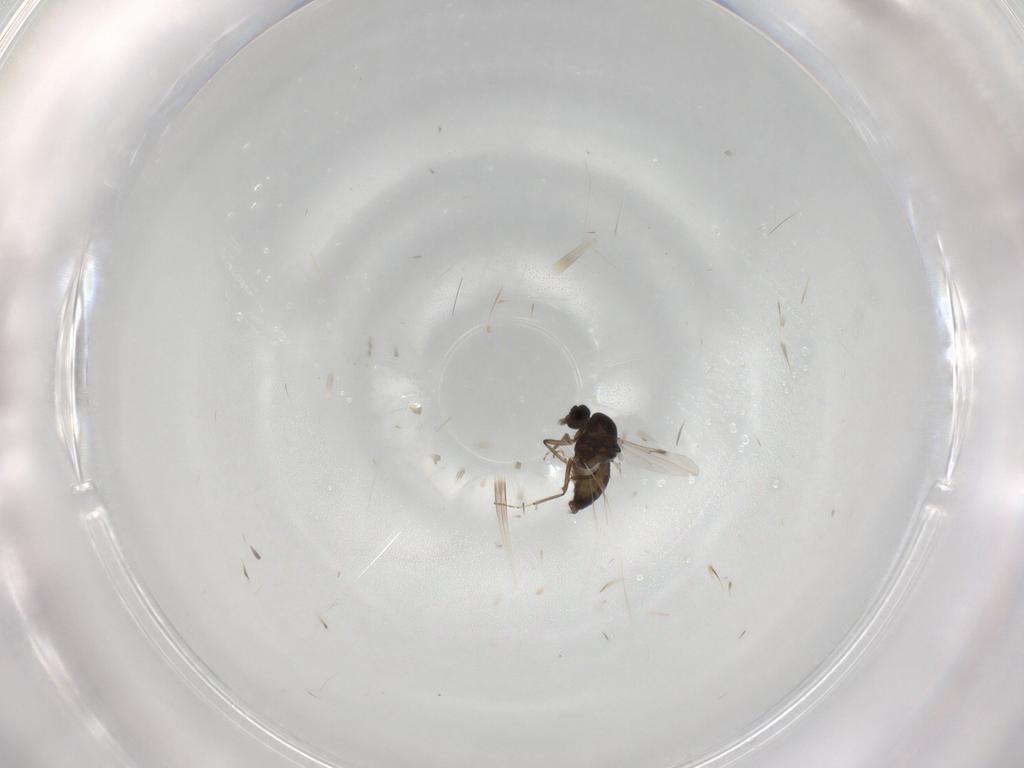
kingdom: Animalia
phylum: Arthropoda
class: Insecta
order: Diptera
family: Ceratopogonidae
